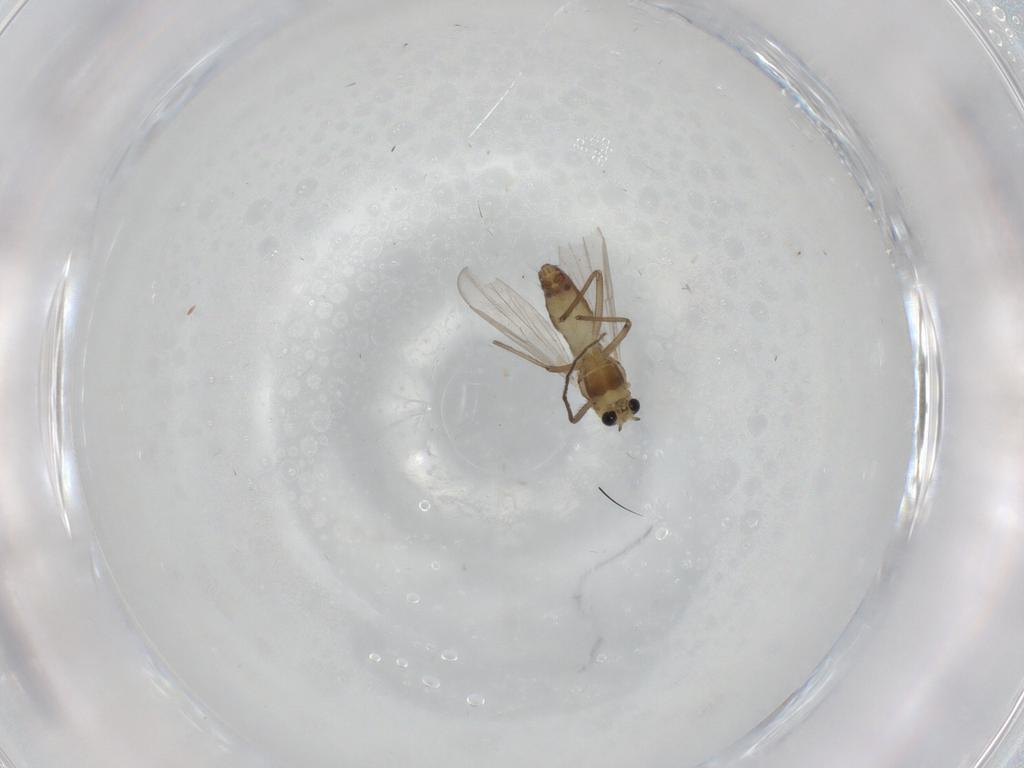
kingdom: Animalia
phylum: Arthropoda
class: Insecta
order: Diptera
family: Chironomidae
